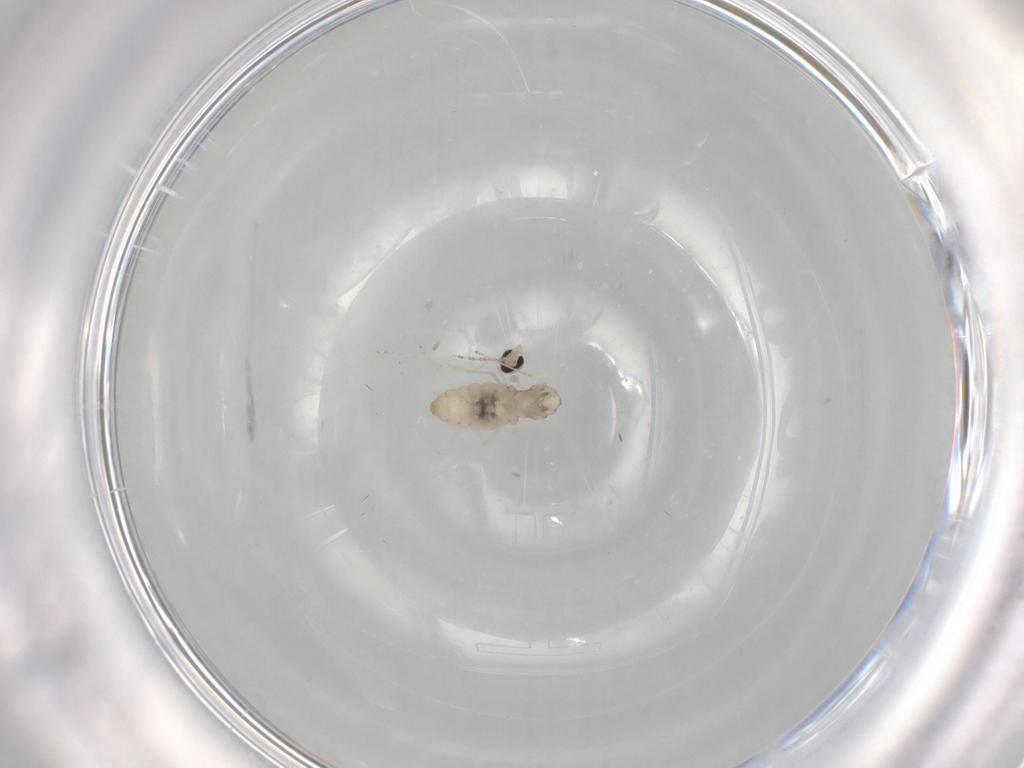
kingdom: Animalia
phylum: Arthropoda
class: Insecta
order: Diptera
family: Cecidomyiidae
